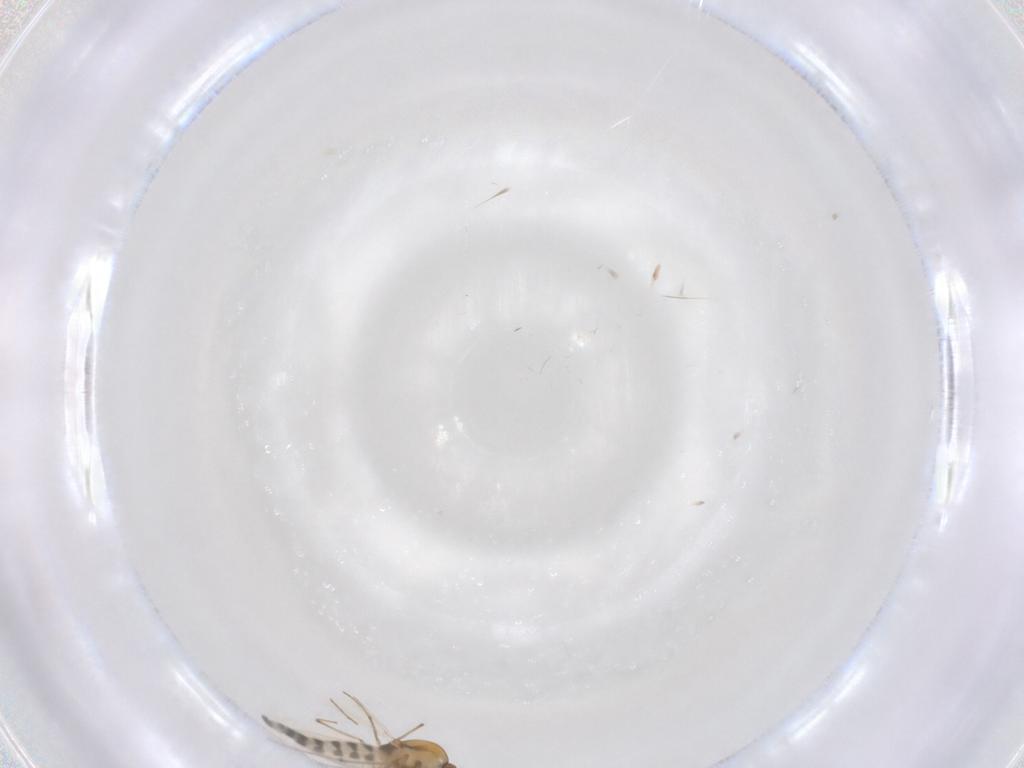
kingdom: Animalia
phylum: Arthropoda
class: Insecta
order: Diptera
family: Chironomidae
